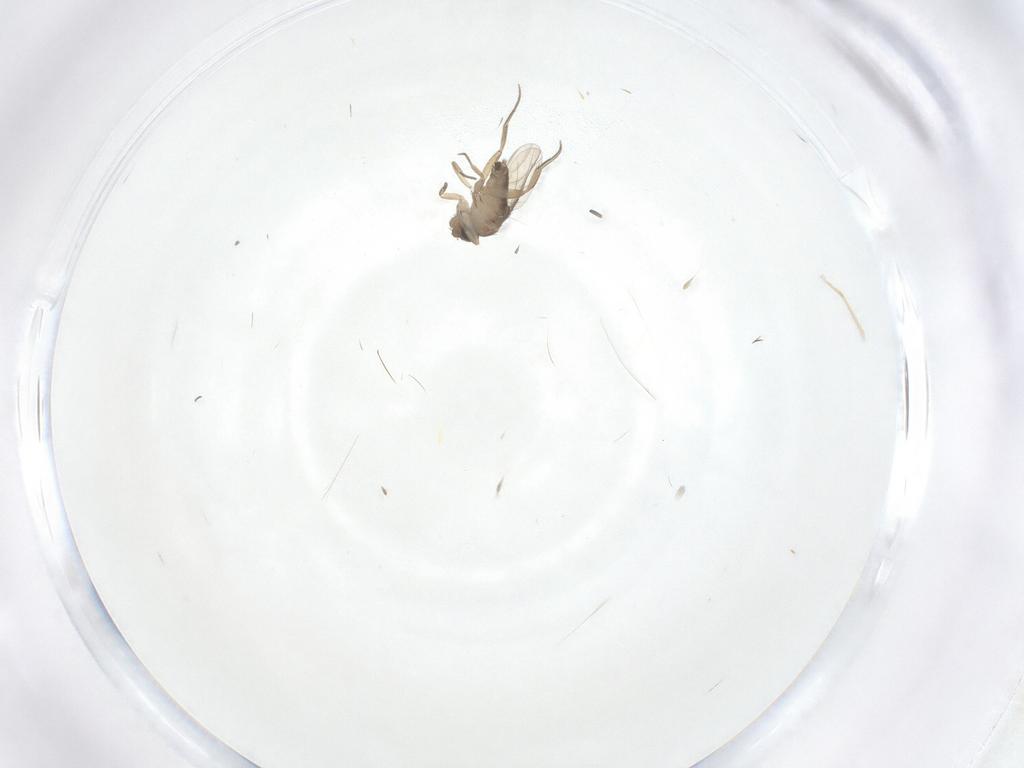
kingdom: Animalia
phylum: Arthropoda
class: Insecta
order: Diptera
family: Phoridae
